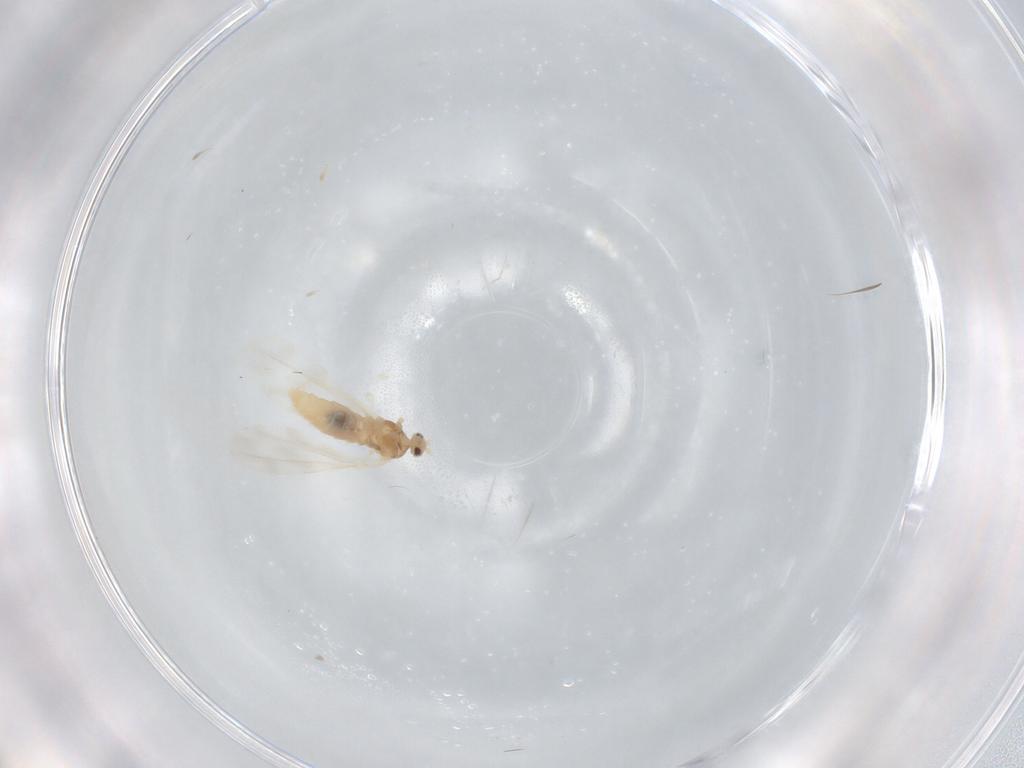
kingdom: Animalia
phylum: Arthropoda
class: Insecta
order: Diptera
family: Cecidomyiidae
